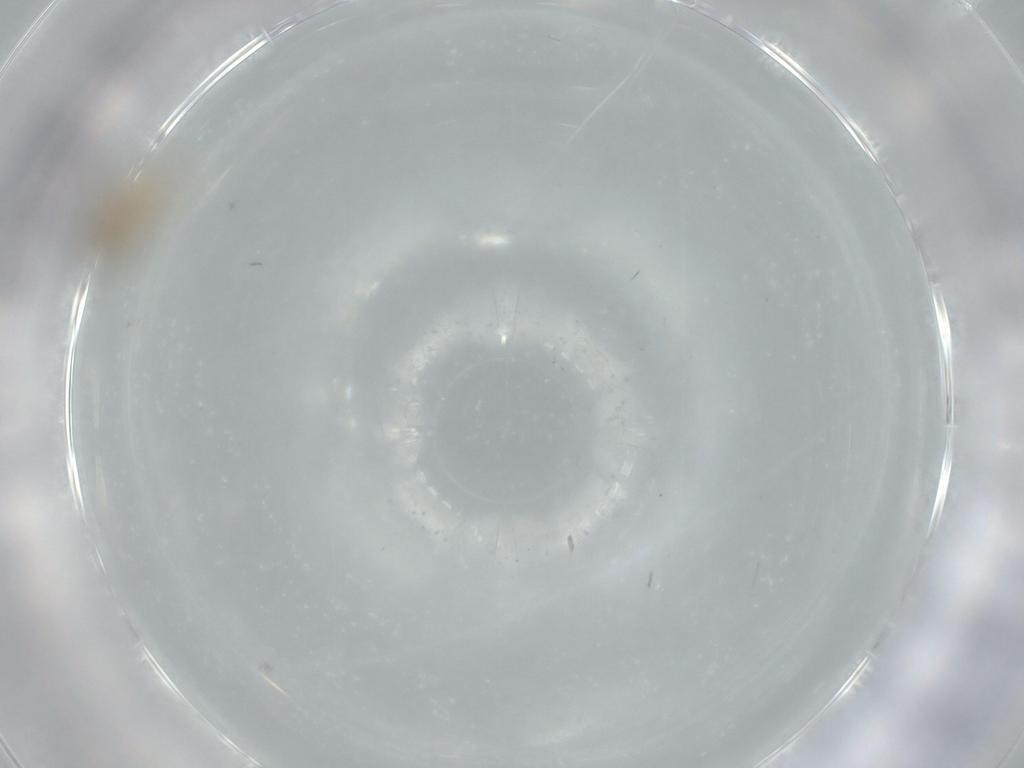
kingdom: Animalia
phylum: Arthropoda
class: Insecta
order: Diptera
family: Cecidomyiidae
